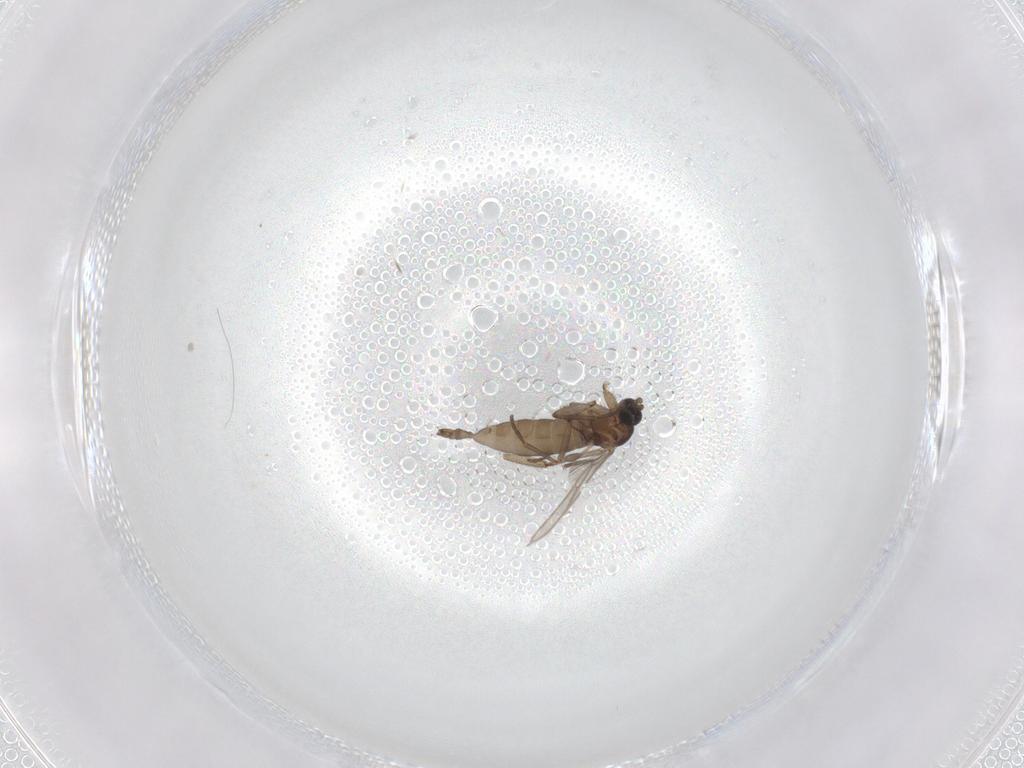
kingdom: Animalia
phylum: Arthropoda
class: Insecta
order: Diptera
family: Sciaridae
